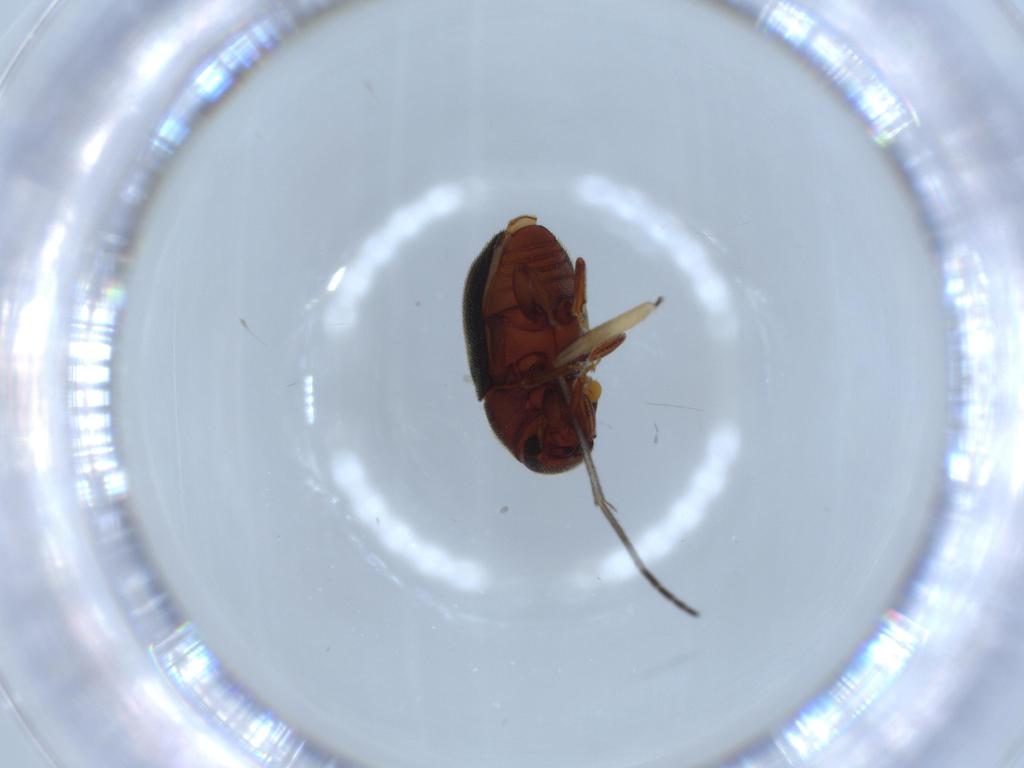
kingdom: Animalia
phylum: Arthropoda
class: Insecta
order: Coleoptera
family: Curculionidae
